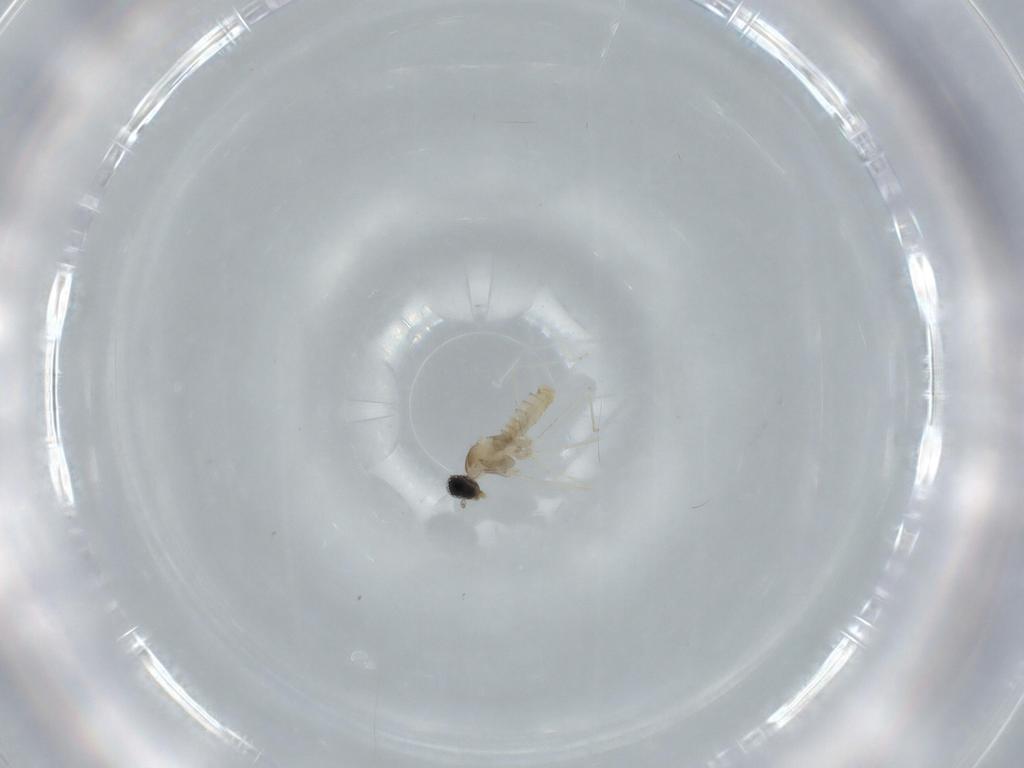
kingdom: Animalia
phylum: Arthropoda
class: Insecta
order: Diptera
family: Cecidomyiidae
